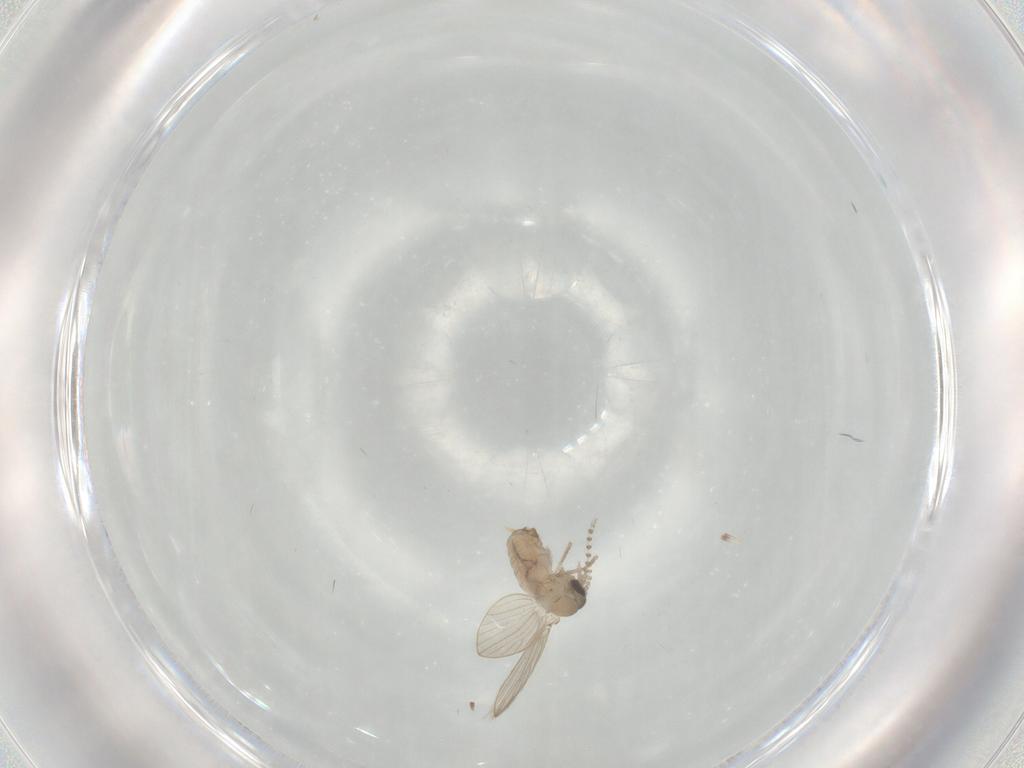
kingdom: Animalia
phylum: Arthropoda
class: Insecta
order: Diptera
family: Psychodidae
